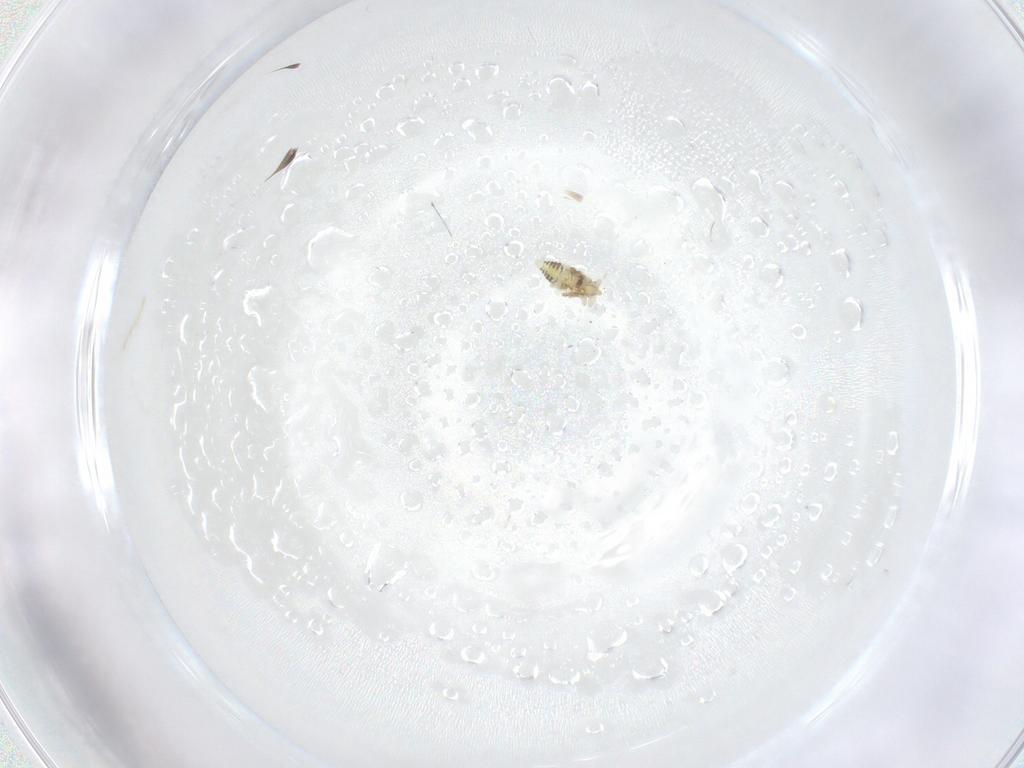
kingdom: Animalia
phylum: Arthropoda
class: Insecta
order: Neuroptera
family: Coniopterygidae
